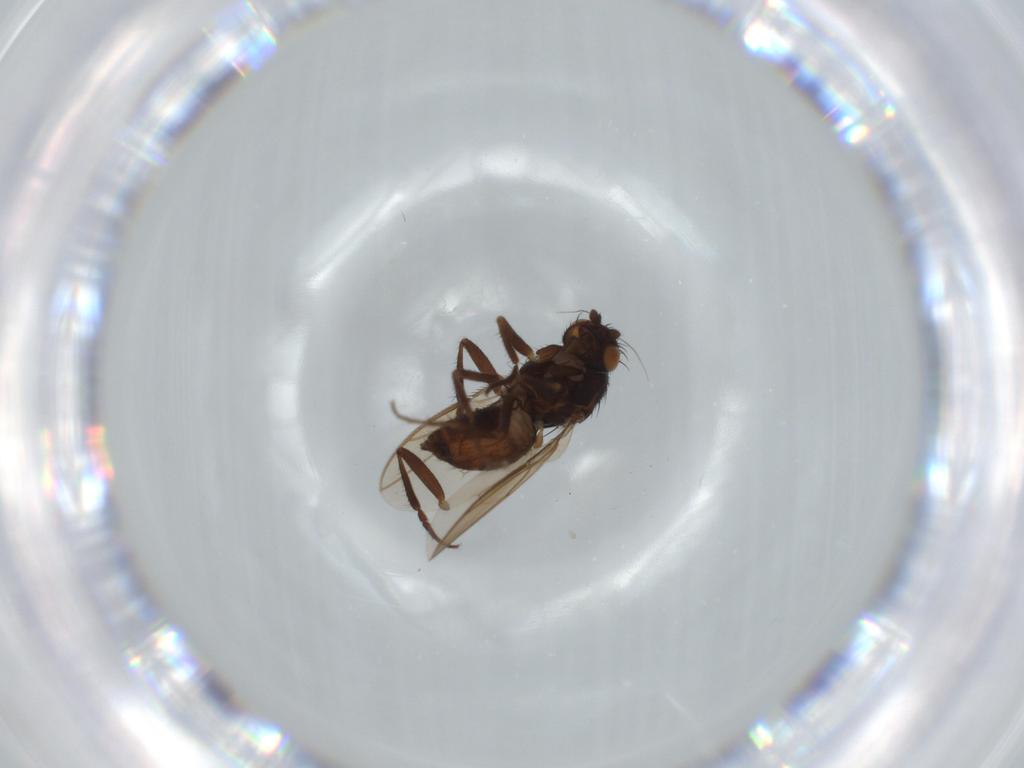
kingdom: Animalia
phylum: Arthropoda
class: Insecta
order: Diptera
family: Sphaeroceridae
